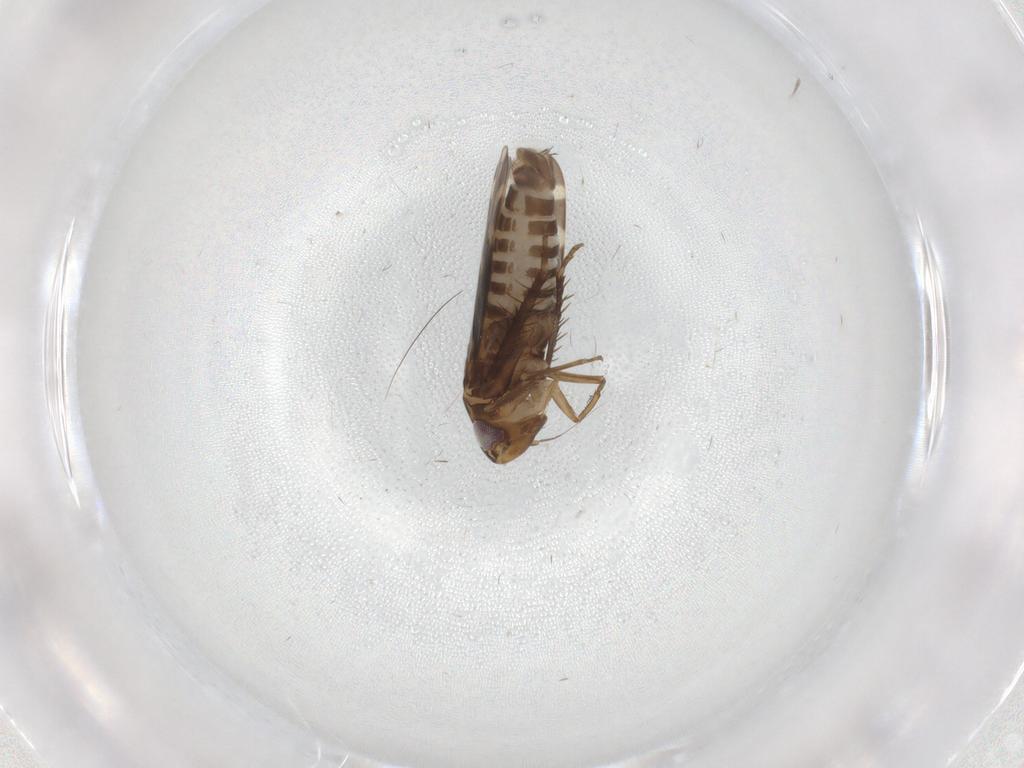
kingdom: Animalia
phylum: Arthropoda
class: Insecta
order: Hemiptera
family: Cicadellidae
